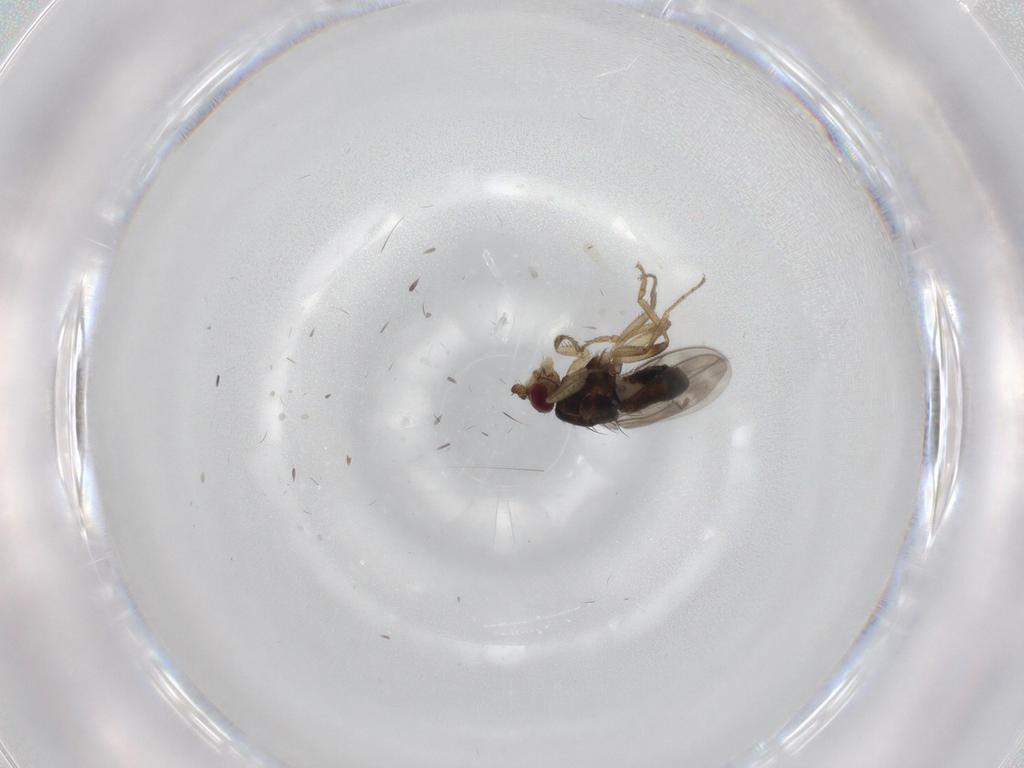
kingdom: Animalia
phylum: Arthropoda
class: Insecta
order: Diptera
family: Sphaeroceridae
